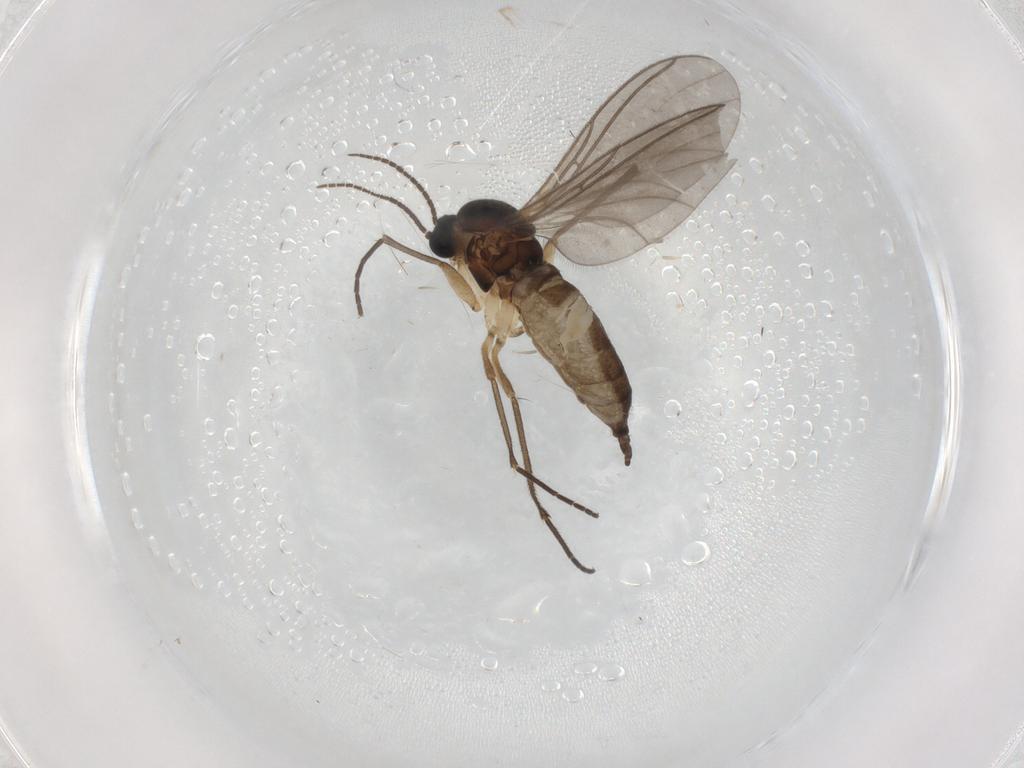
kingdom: Animalia
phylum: Arthropoda
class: Insecta
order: Diptera
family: Sciaridae
